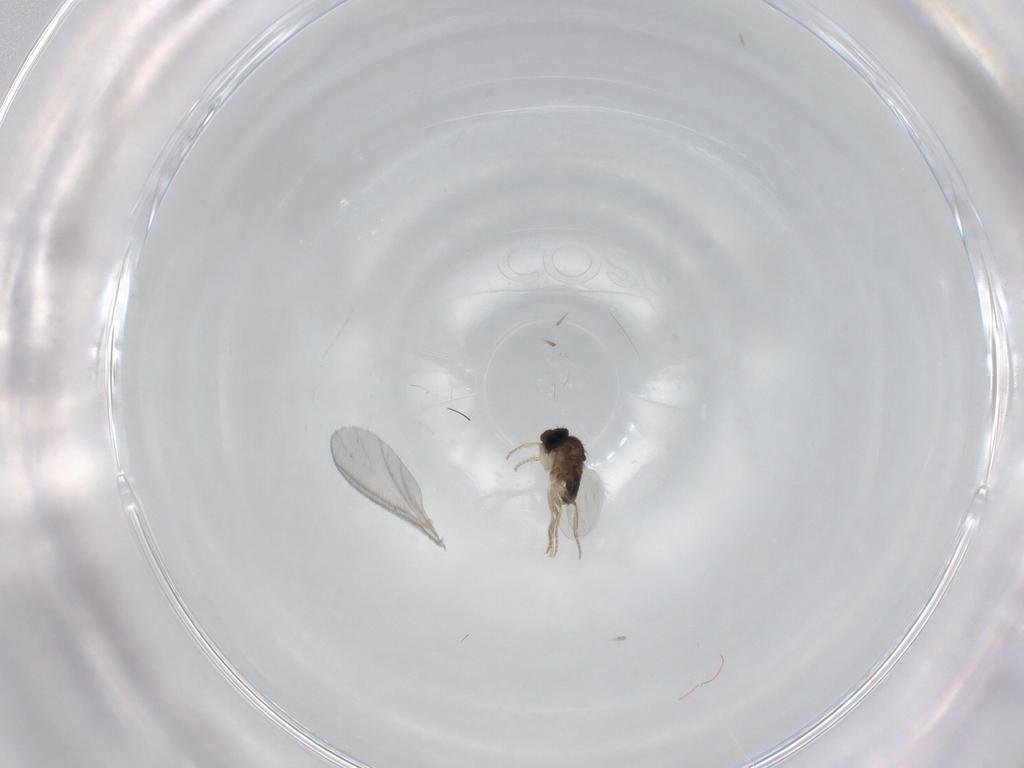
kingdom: Animalia
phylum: Arthropoda
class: Insecta
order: Diptera
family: Phoridae
